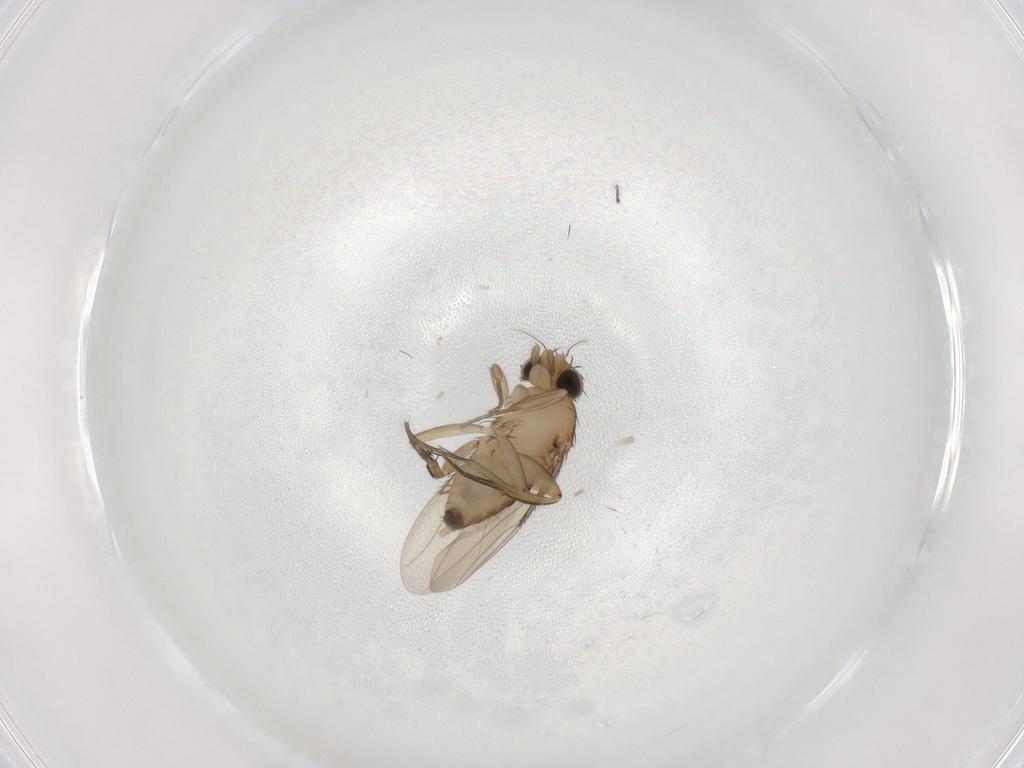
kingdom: Animalia
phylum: Arthropoda
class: Insecta
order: Diptera
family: Phoridae
